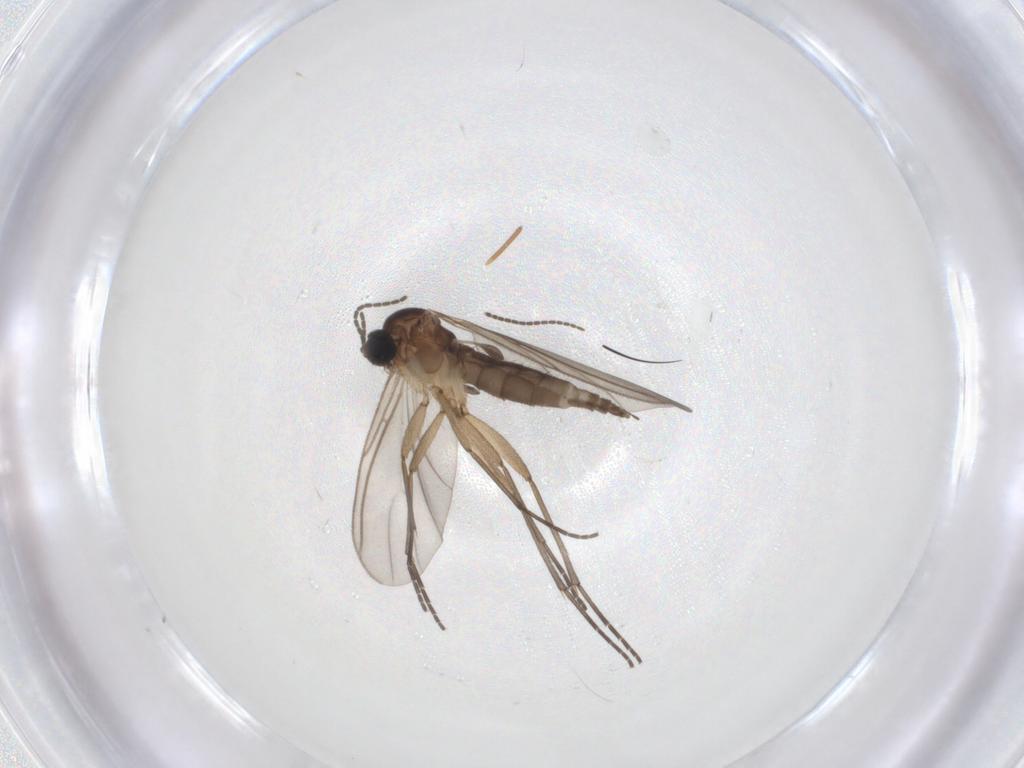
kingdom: Animalia
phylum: Arthropoda
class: Insecta
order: Diptera
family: Sciaridae
